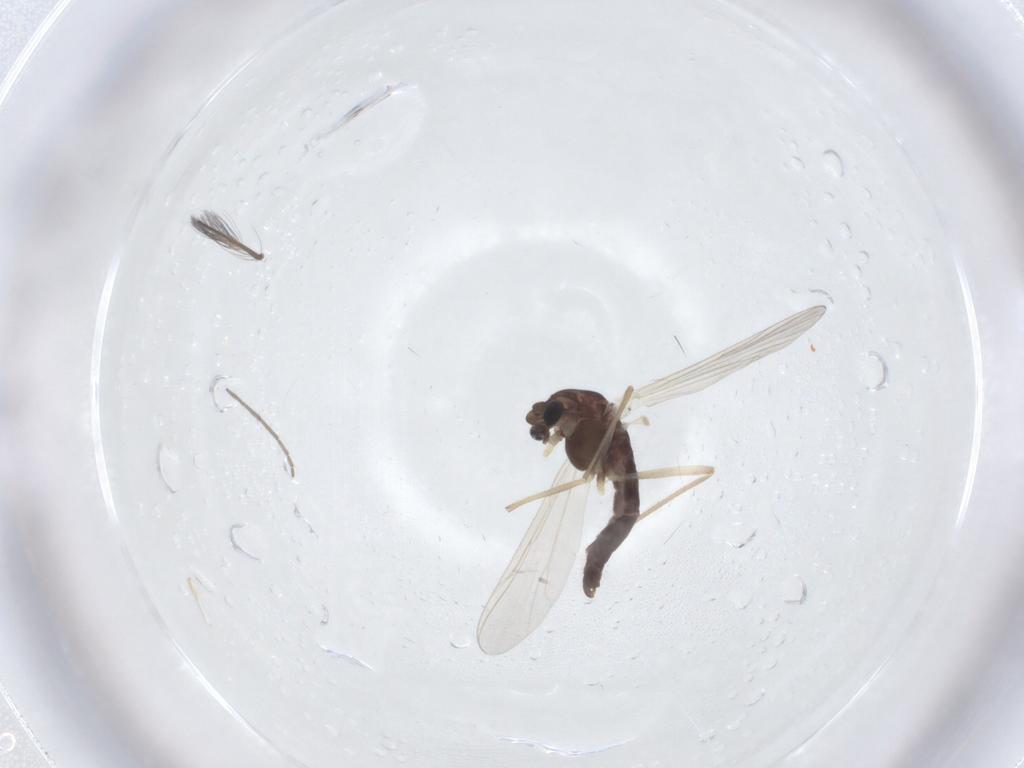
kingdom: Animalia
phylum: Arthropoda
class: Insecta
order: Diptera
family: Chironomidae
